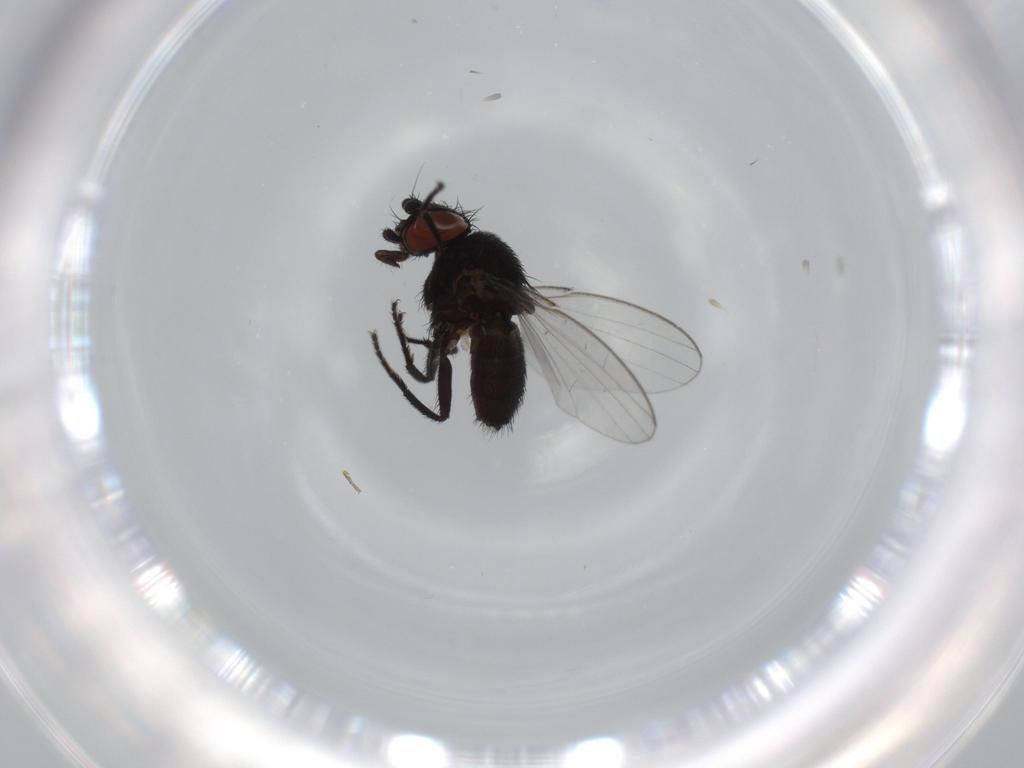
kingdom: Animalia
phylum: Arthropoda
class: Insecta
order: Diptera
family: Milichiidae
